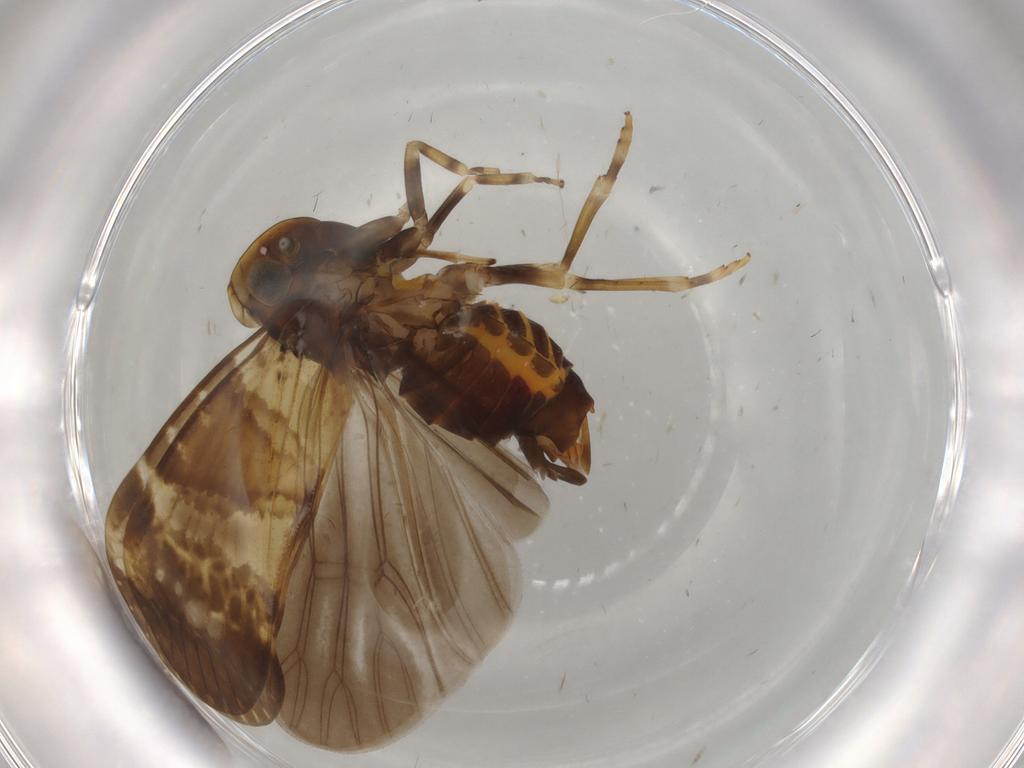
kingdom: Animalia
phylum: Arthropoda
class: Insecta
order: Hemiptera
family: Cixiidae
